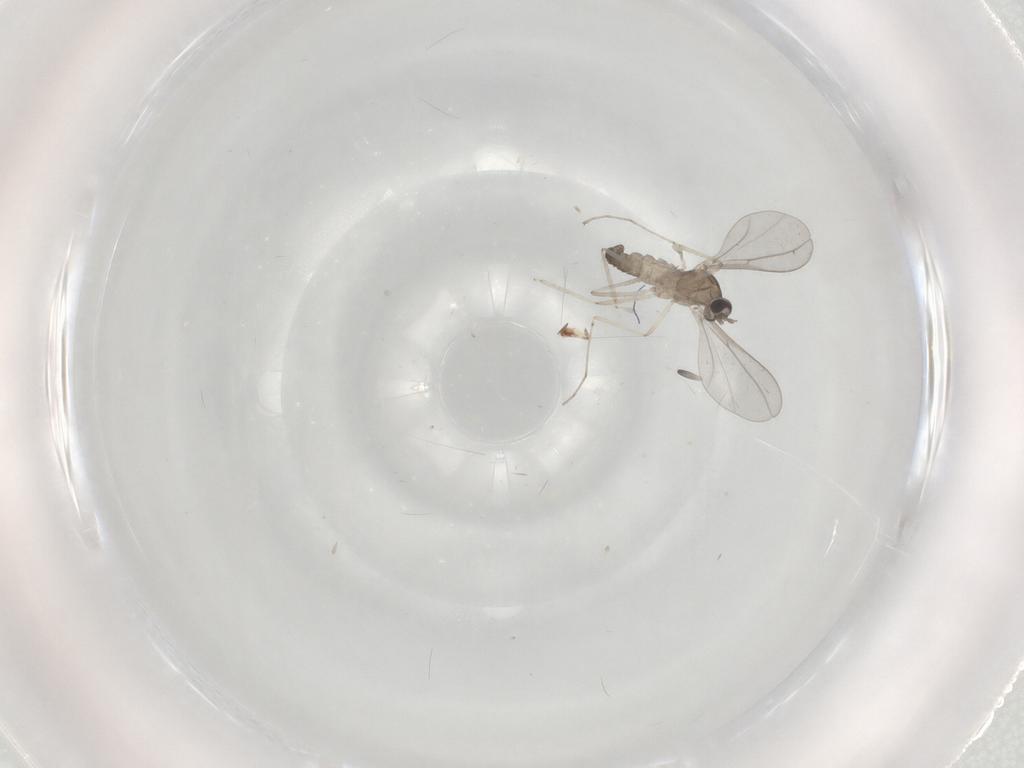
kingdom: Animalia
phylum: Arthropoda
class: Insecta
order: Diptera
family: Cecidomyiidae
